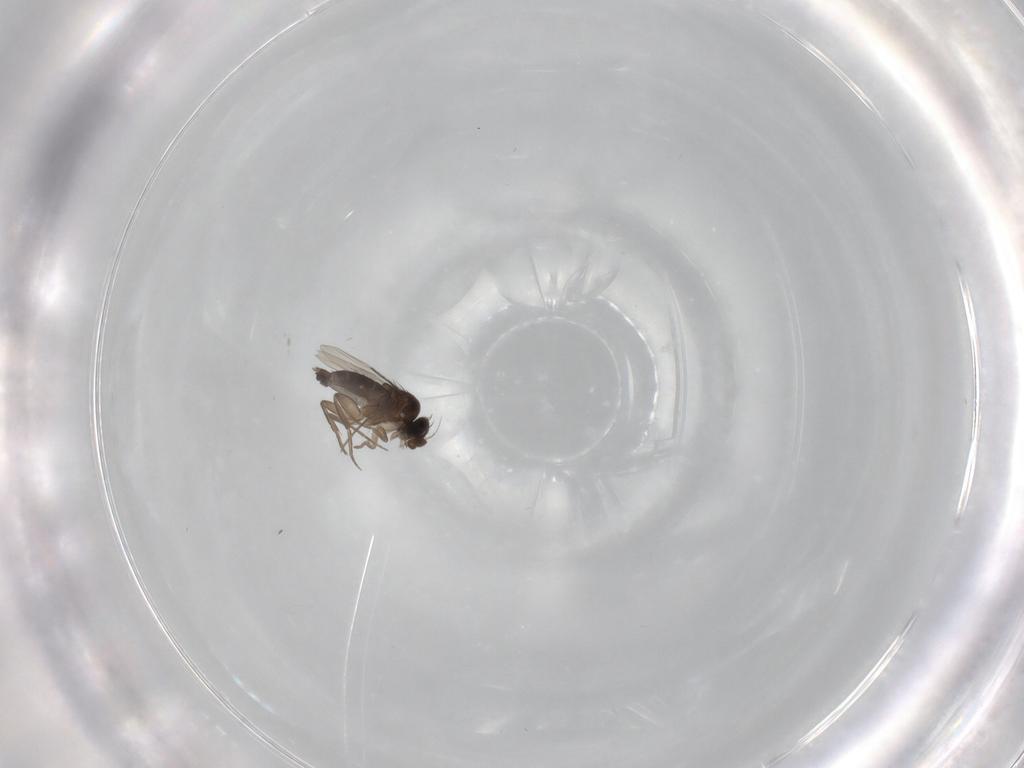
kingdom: Animalia
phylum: Arthropoda
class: Insecta
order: Diptera
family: Phoridae
